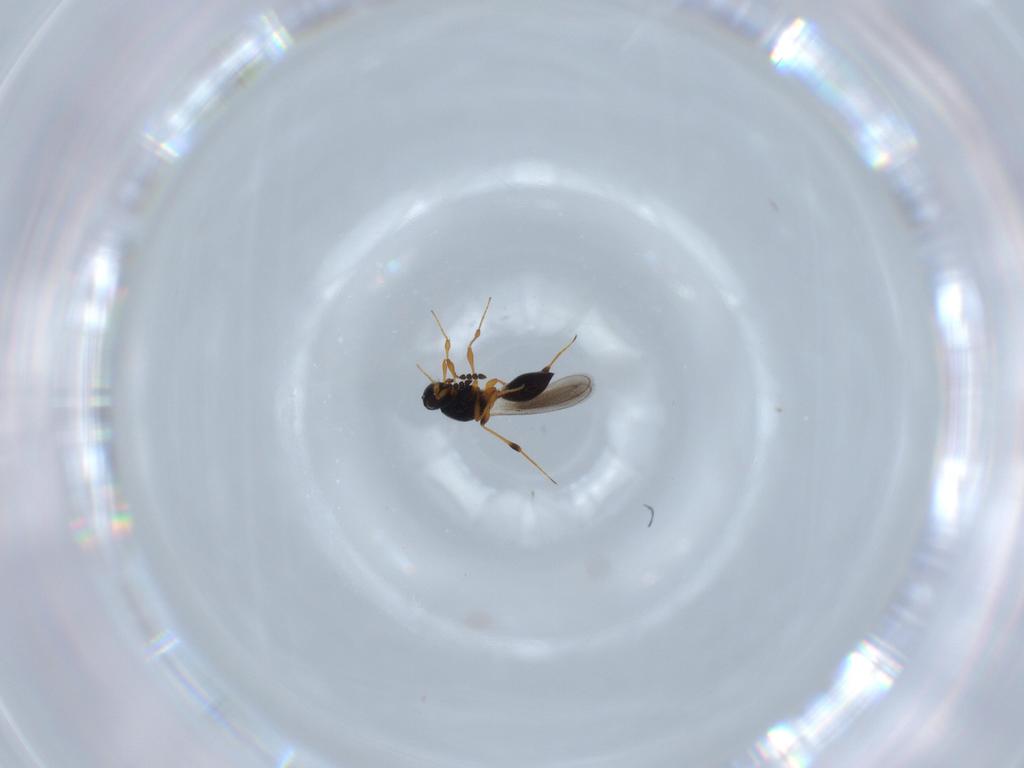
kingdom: Animalia
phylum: Arthropoda
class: Insecta
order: Hymenoptera
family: Platygastridae
